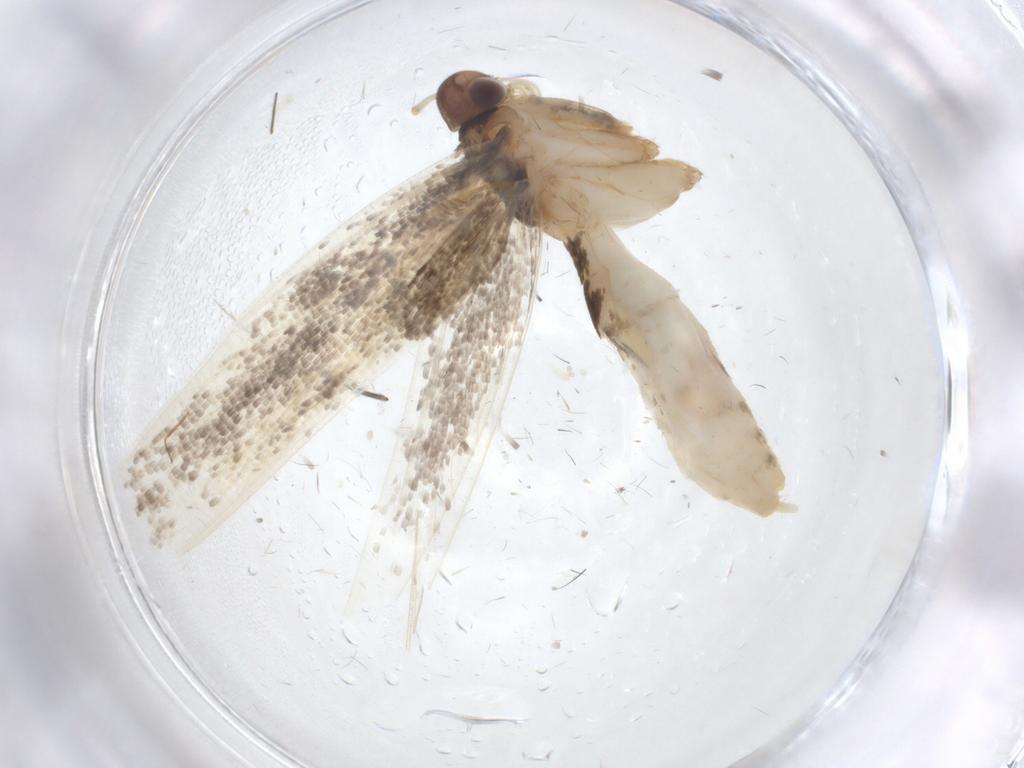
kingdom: Animalia
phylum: Arthropoda
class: Insecta
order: Lepidoptera
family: Cosmopterigidae
